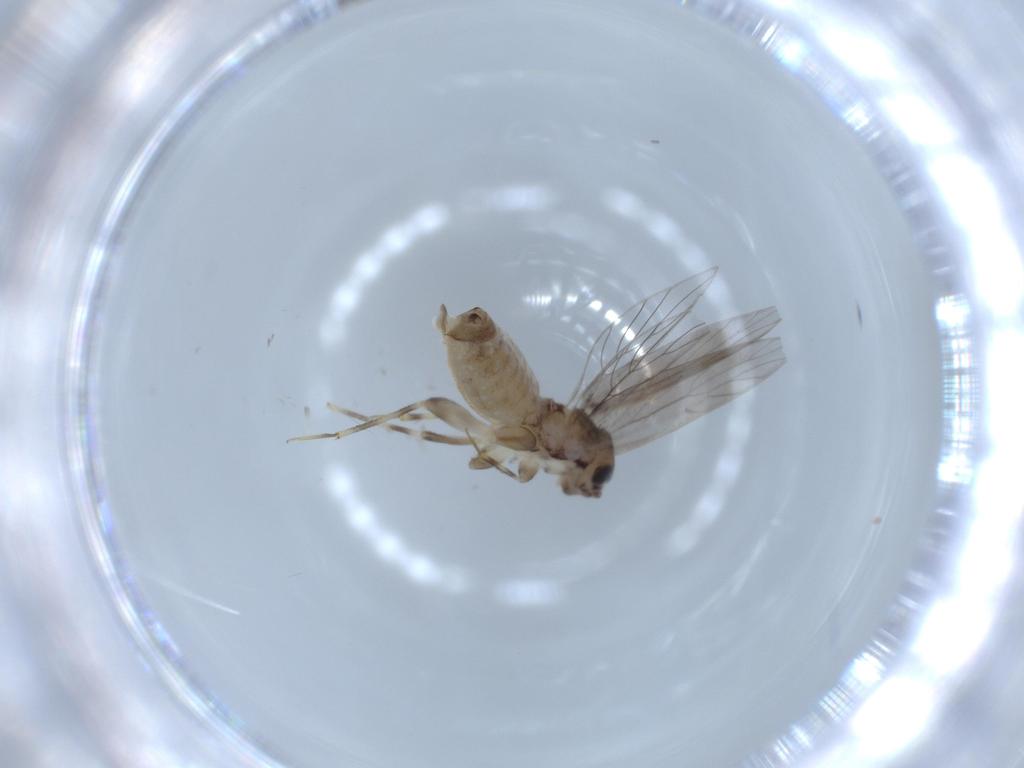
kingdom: Animalia
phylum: Arthropoda
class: Insecta
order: Psocodea
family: Lepidopsocidae
